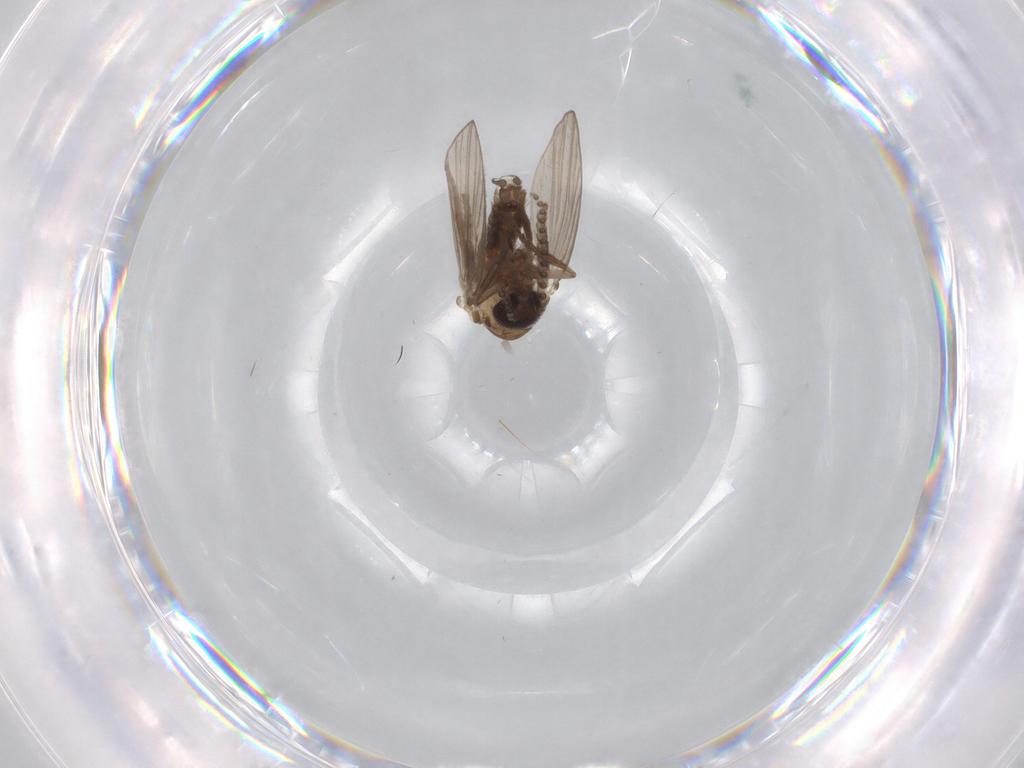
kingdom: Animalia
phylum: Arthropoda
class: Insecta
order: Diptera
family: Psychodidae
